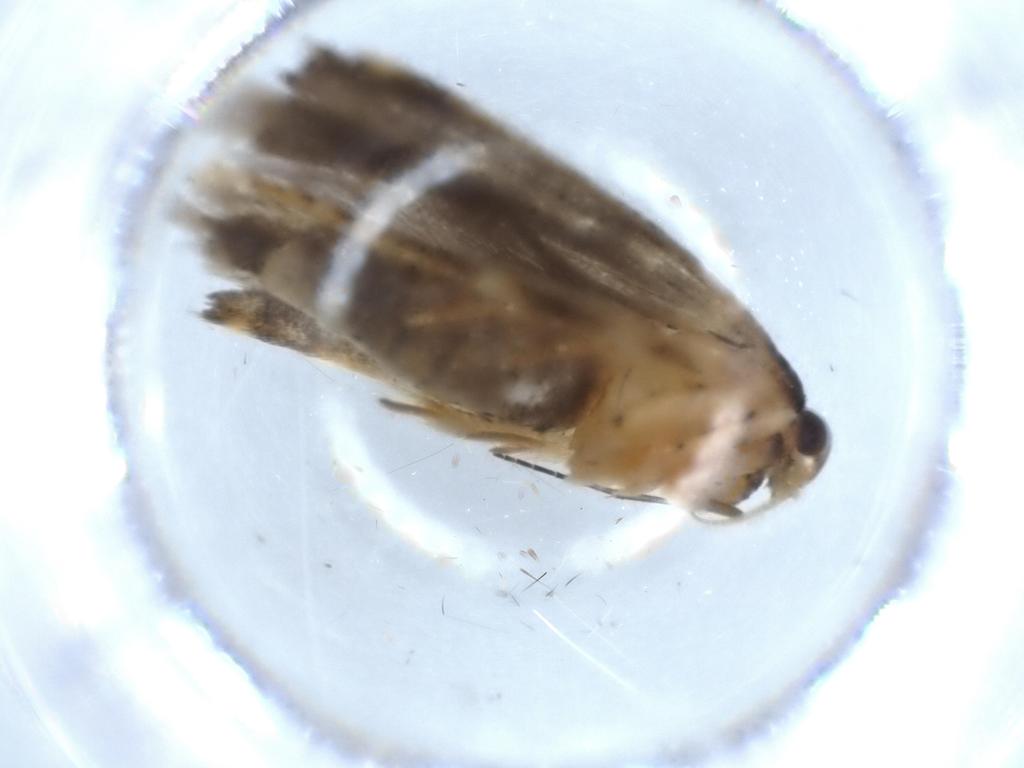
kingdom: Animalia
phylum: Arthropoda
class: Insecta
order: Lepidoptera
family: Gelechiidae
